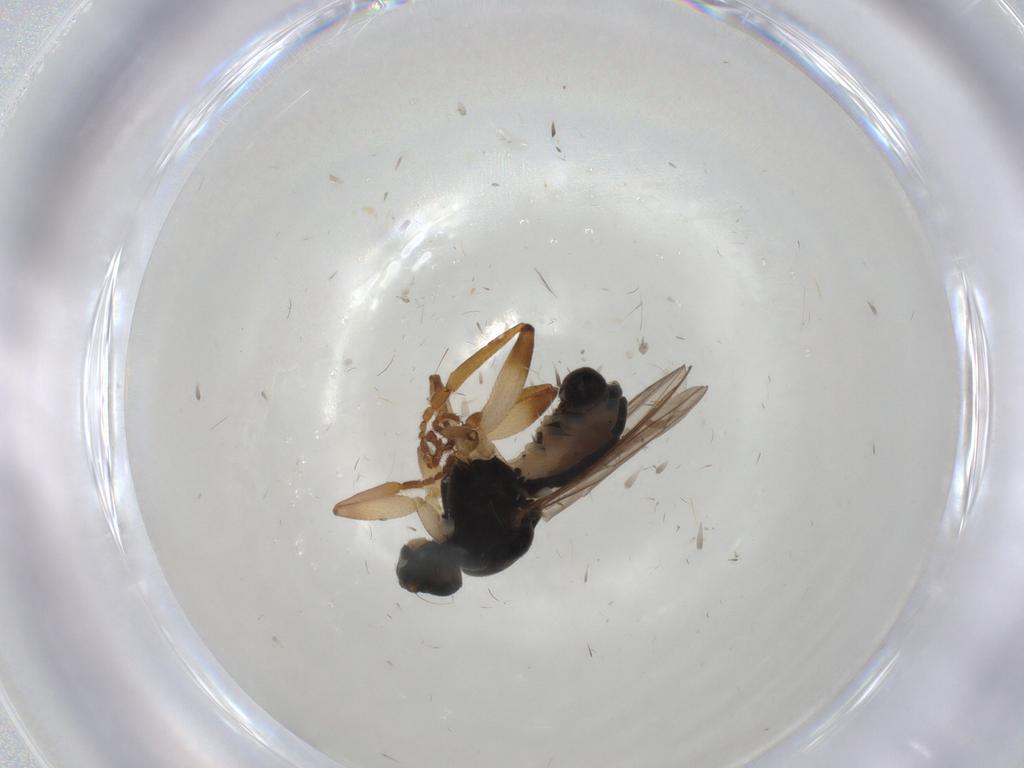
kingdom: Animalia
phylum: Arthropoda
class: Insecta
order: Diptera
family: Sphaeroceridae
